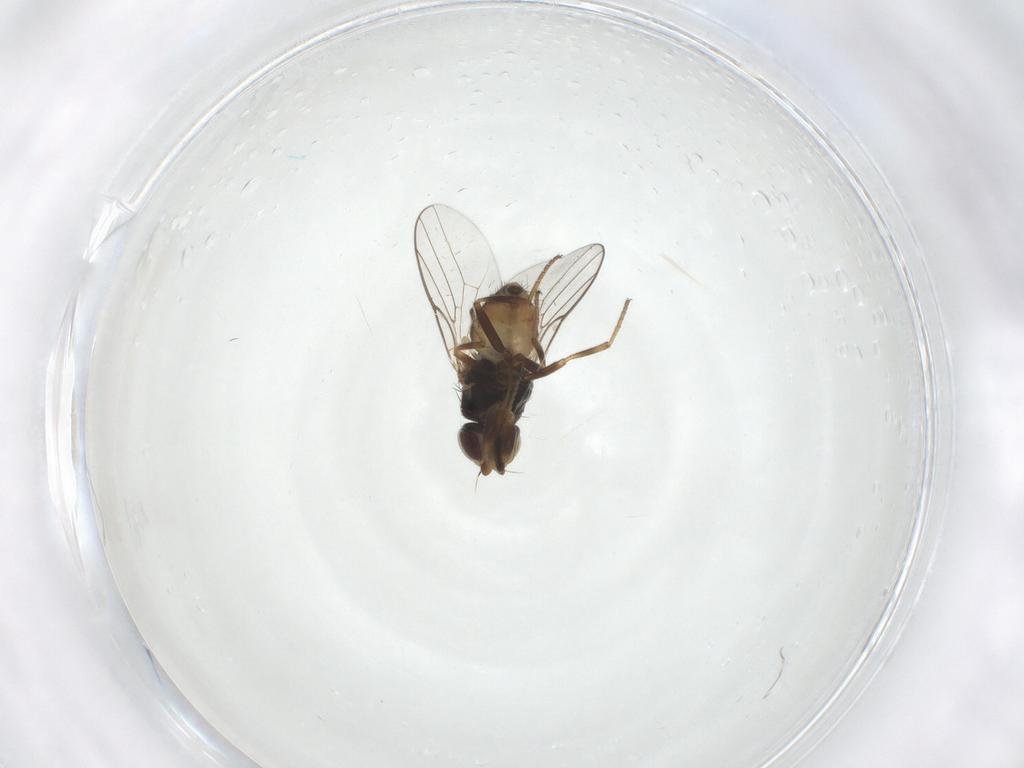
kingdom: Animalia
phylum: Arthropoda
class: Insecta
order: Diptera
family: Chloropidae
